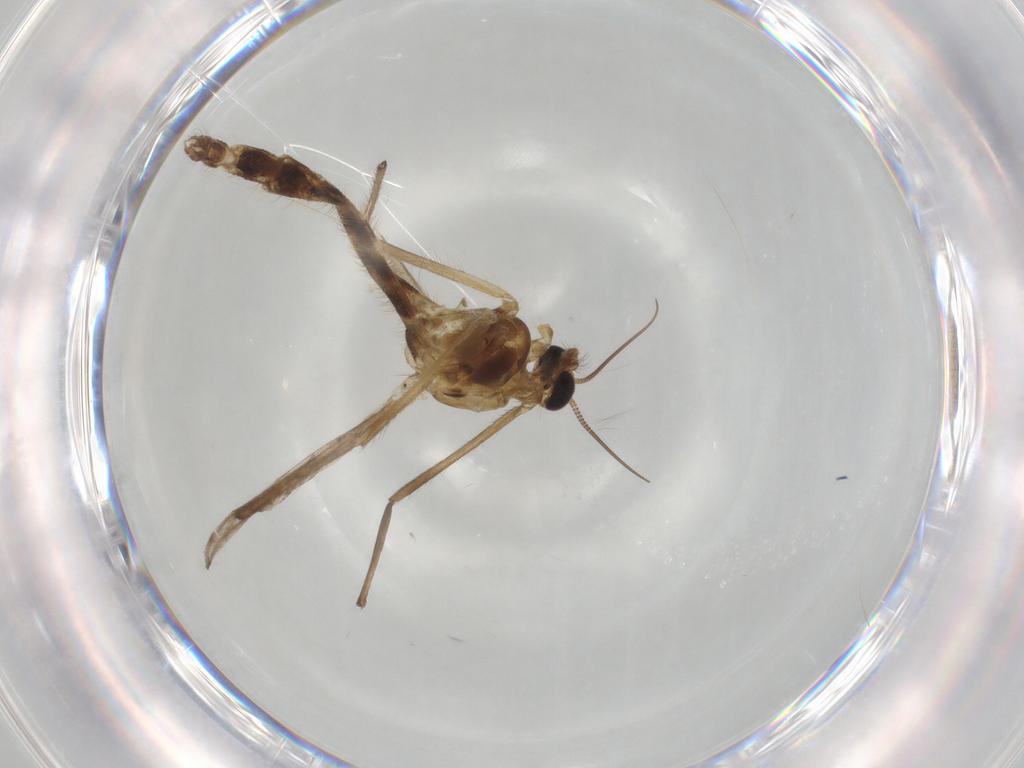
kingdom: Animalia
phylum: Arthropoda
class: Insecta
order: Diptera
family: Chironomidae
